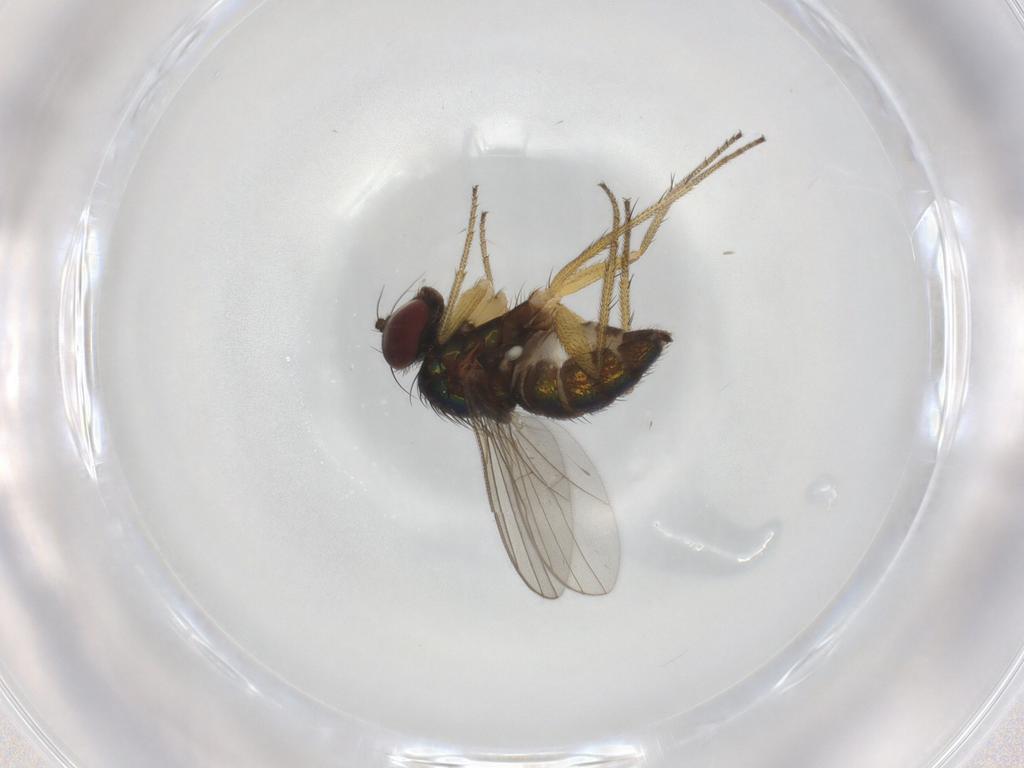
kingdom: Animalia
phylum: Arthropoda
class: Insecta
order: Diptera
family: Dolichopodidae
